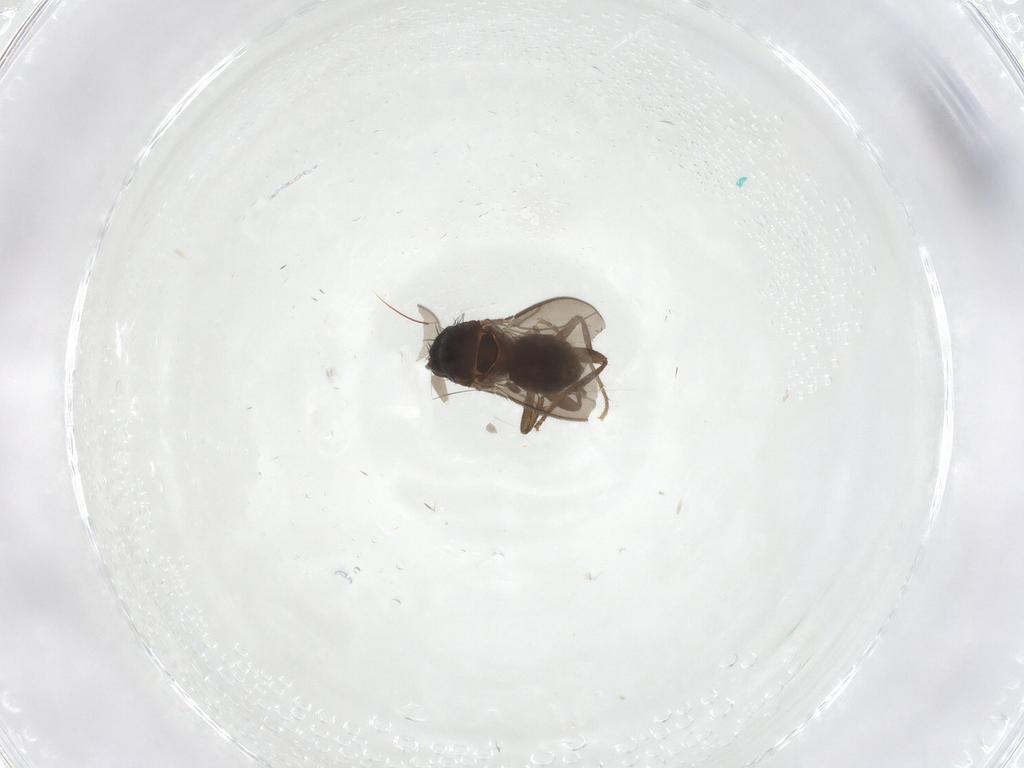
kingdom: Animalia
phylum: Arthropoda
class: Insecta
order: Diptera
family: Sphaeroceridae
